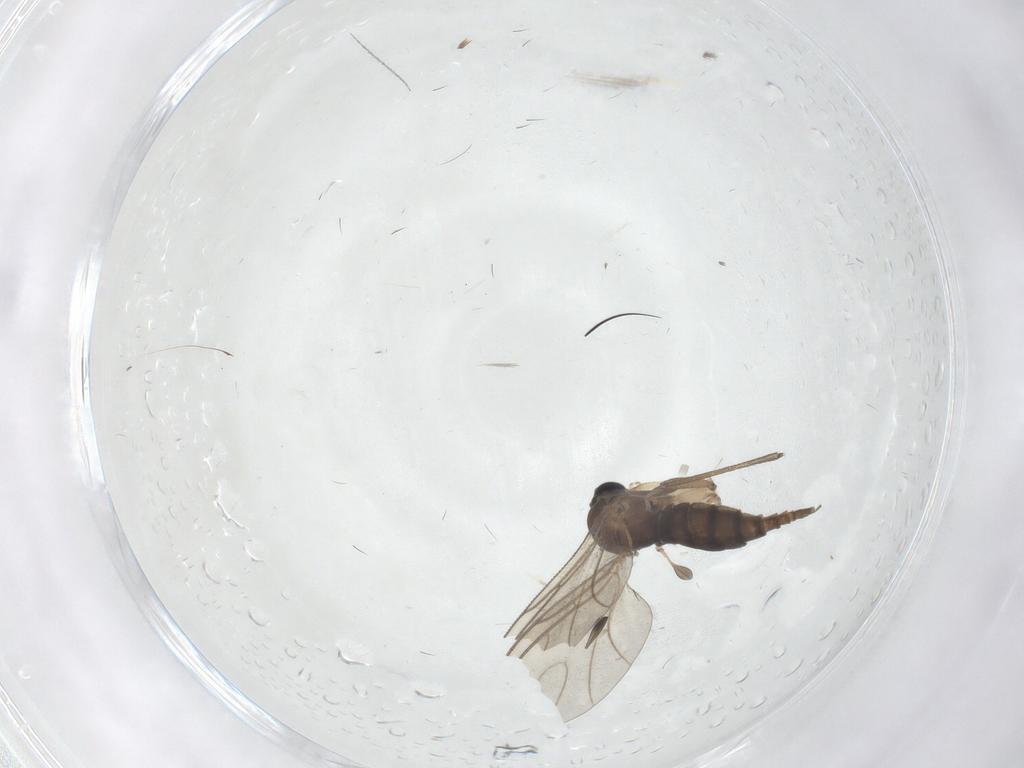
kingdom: Animalia
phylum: Arthropoda
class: Insecta
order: Diptera
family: Sciaridae
